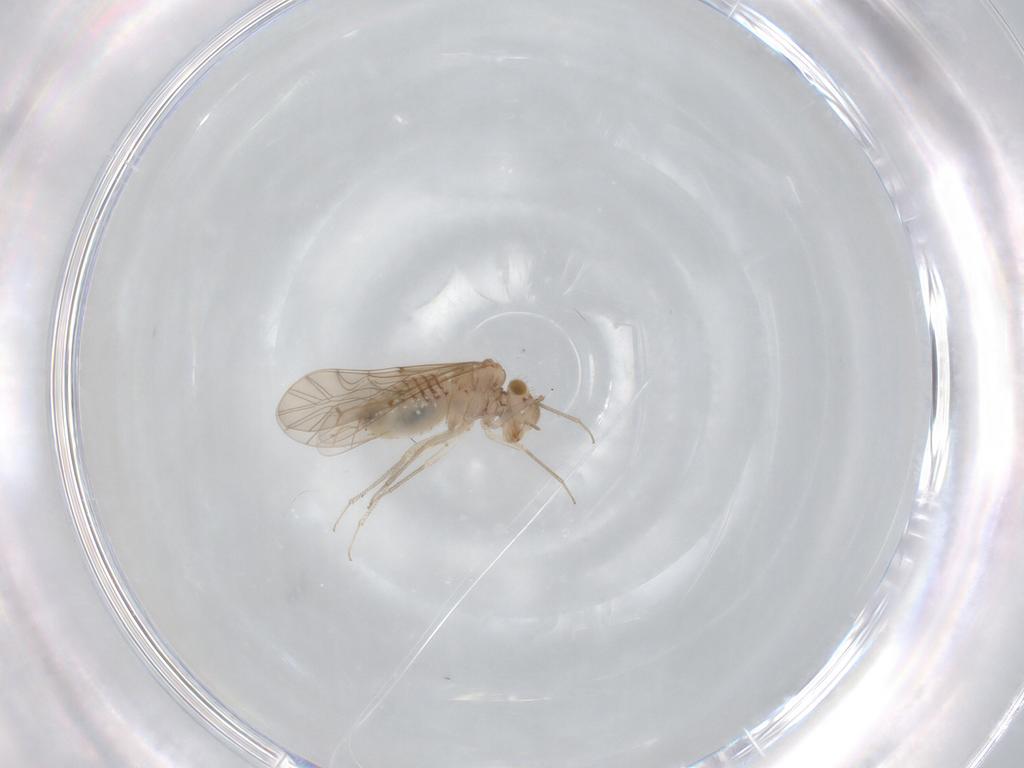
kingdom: Animalia
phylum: Arthropoda
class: Insecta
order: Psocodea
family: Lachesillidae
